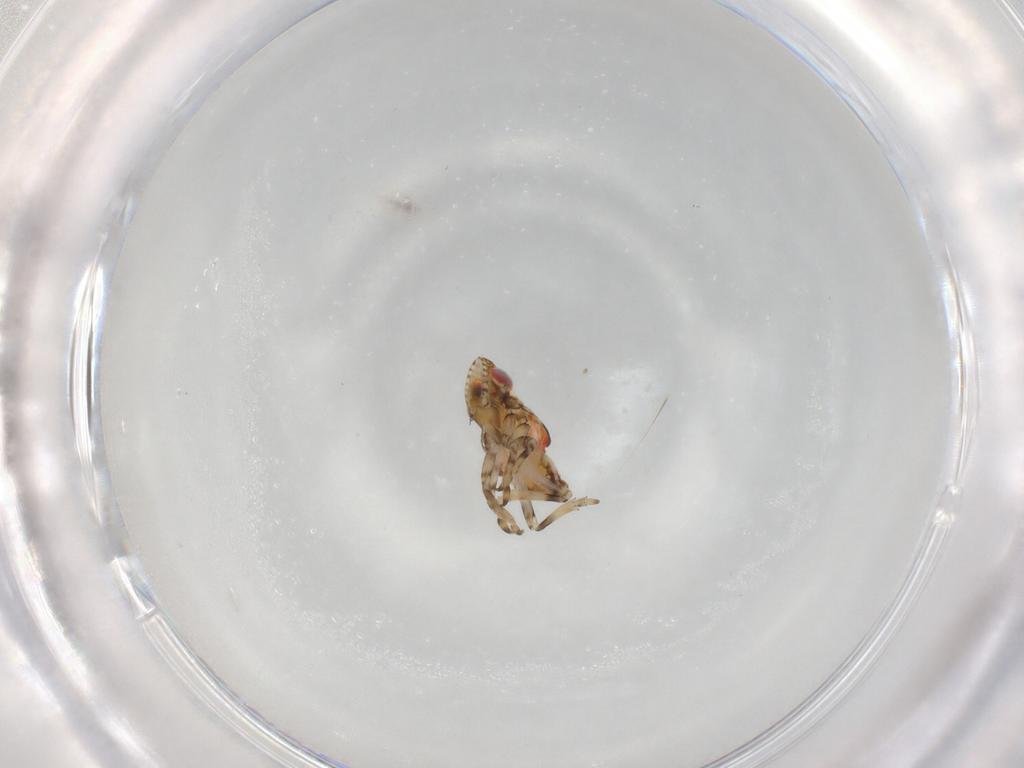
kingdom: Animalia
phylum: Arthropoda
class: Insecta
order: Hemiptera
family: Tropiduchidae
